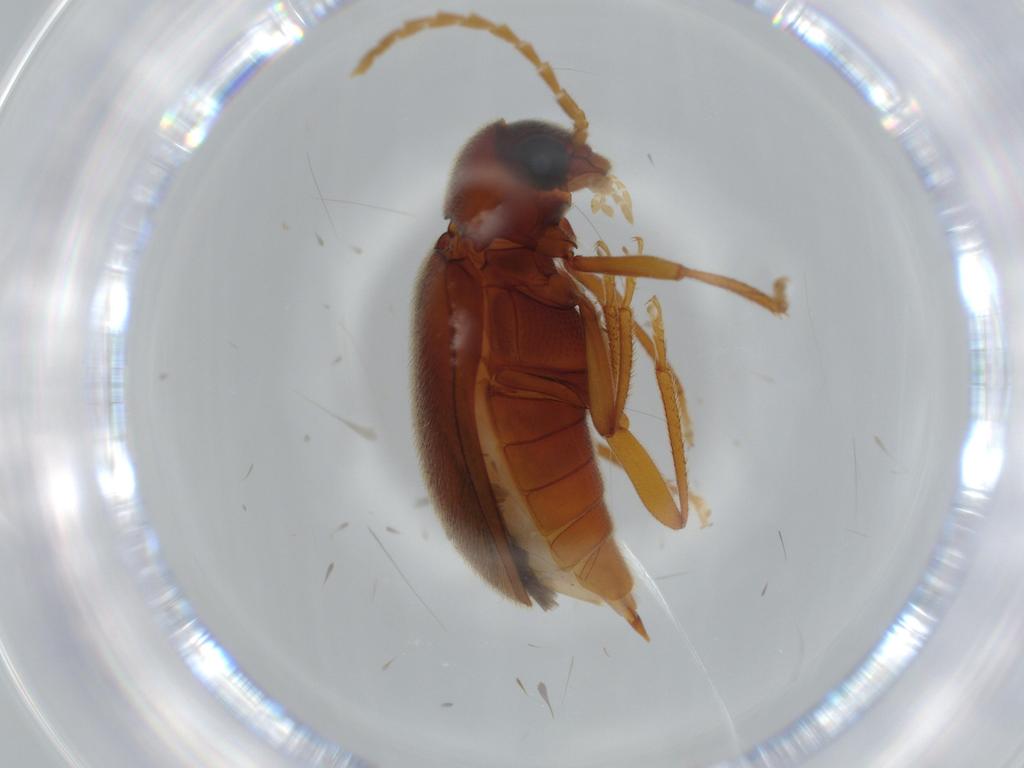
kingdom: Animalia
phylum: Arthropoda
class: Insecta
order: Coleoptera
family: Ptilodactylidae
